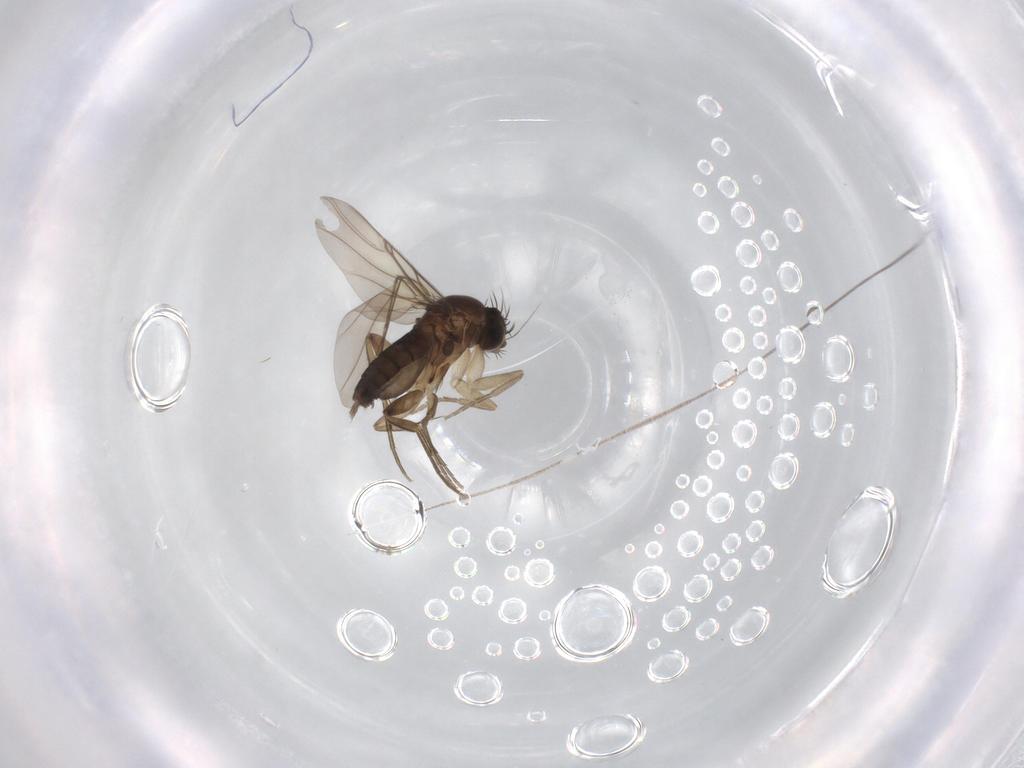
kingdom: Animalia
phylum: Arthropoda
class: Insecta
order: Diptera
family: Phoridae
